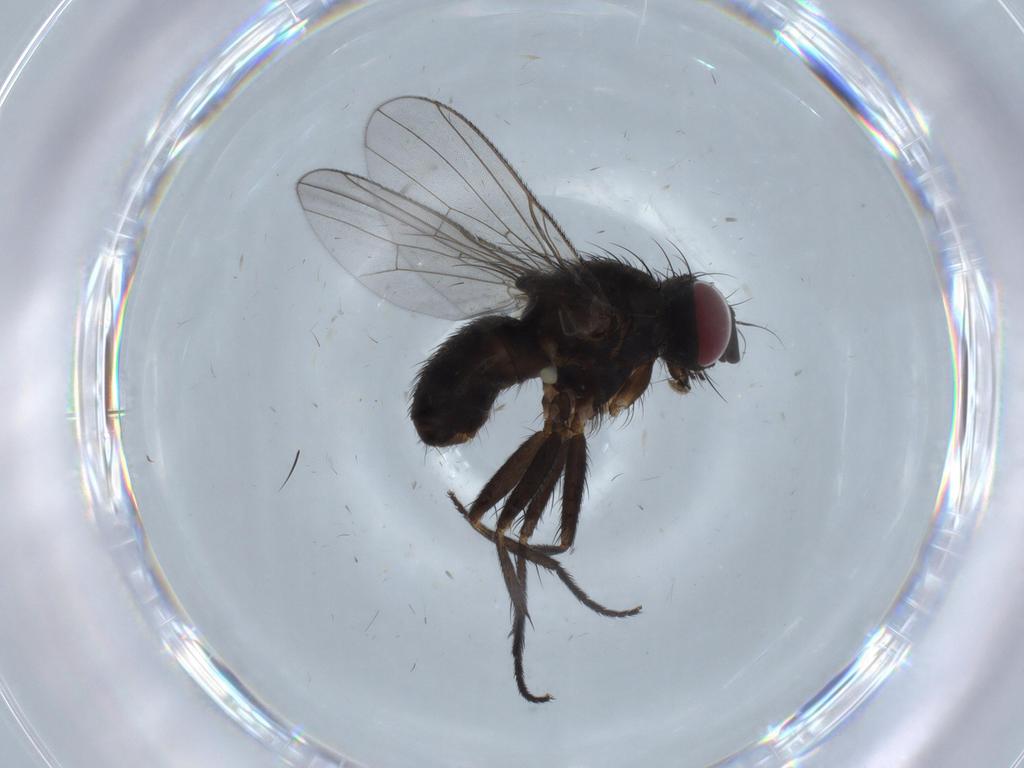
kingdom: Animalia
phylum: Arthropoda
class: Insecta
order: Diptera
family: Muscidae
